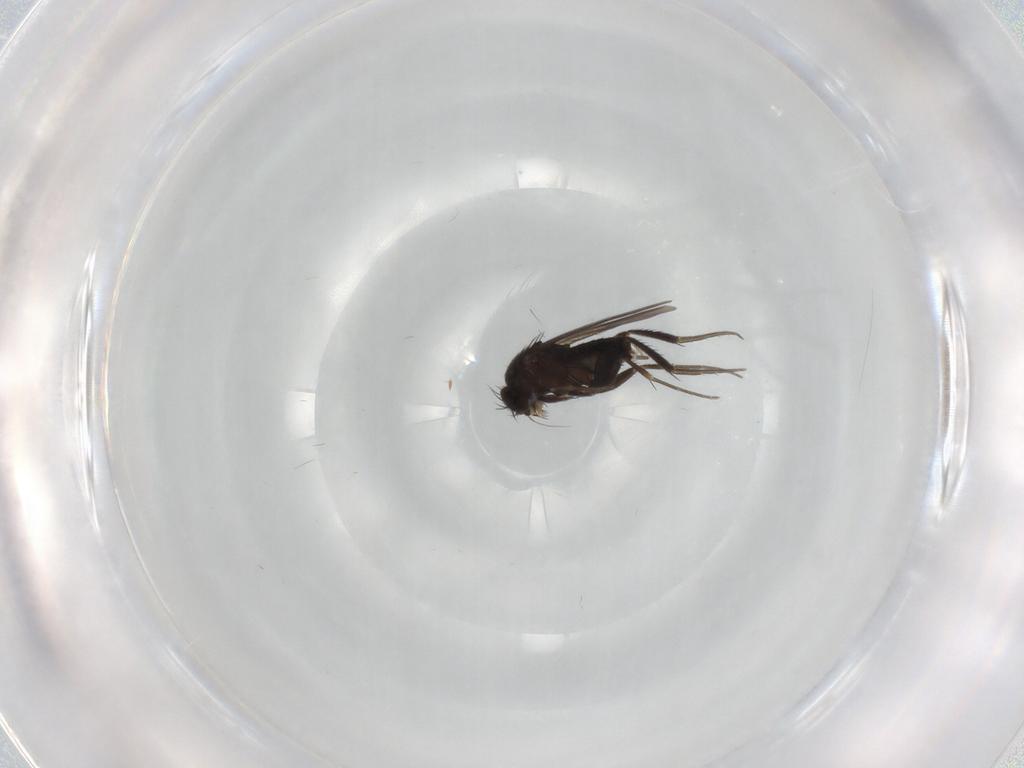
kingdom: Animalia
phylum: Arthropoda
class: Insecta
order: Diptera
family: Phoridae
